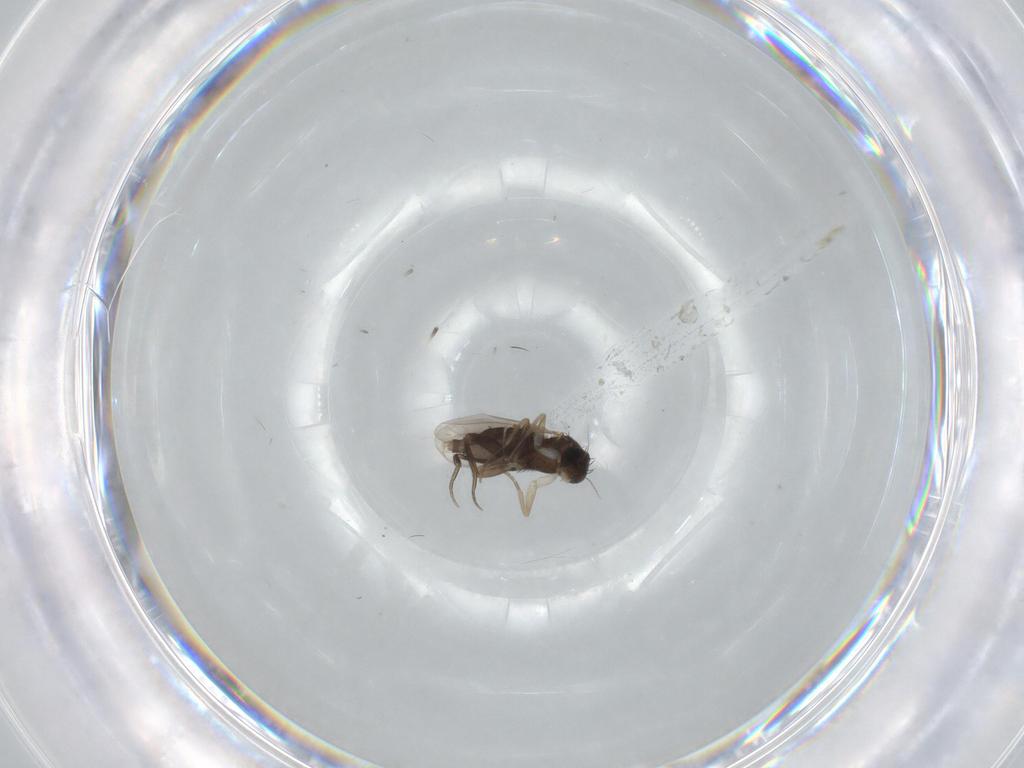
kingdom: Animalia
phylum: Arthropoda
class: Insecta
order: Diptera
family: Phoridae
